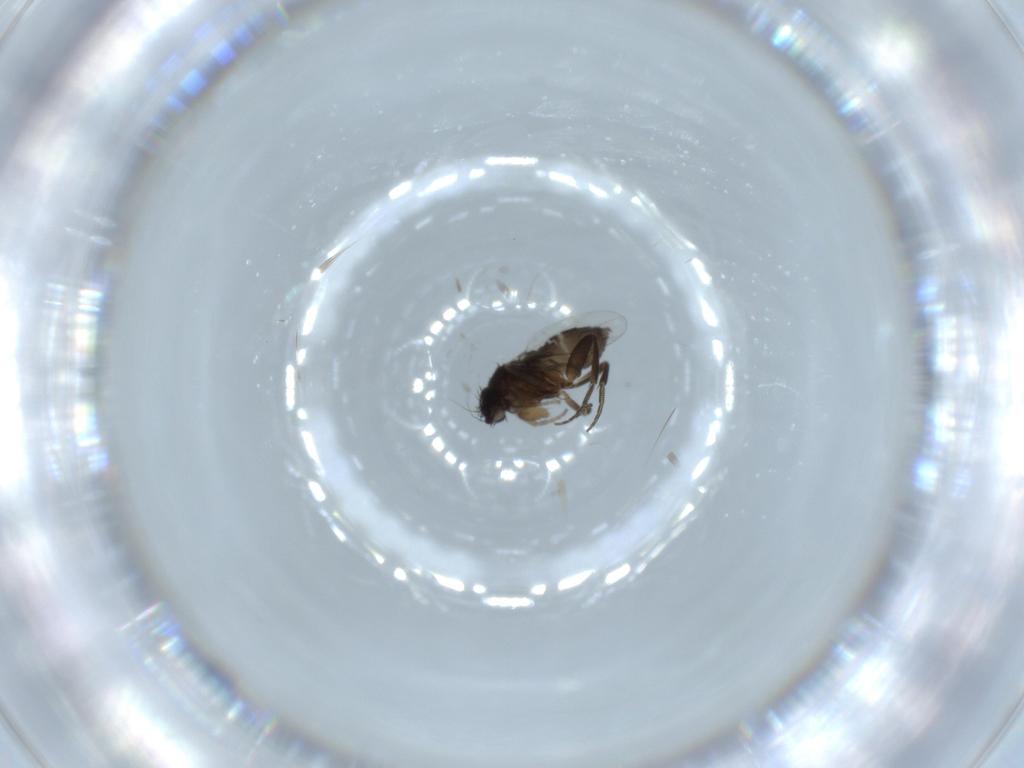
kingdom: Animalia
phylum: Arthropoda
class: Insecta
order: Diptera
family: Phoridae
